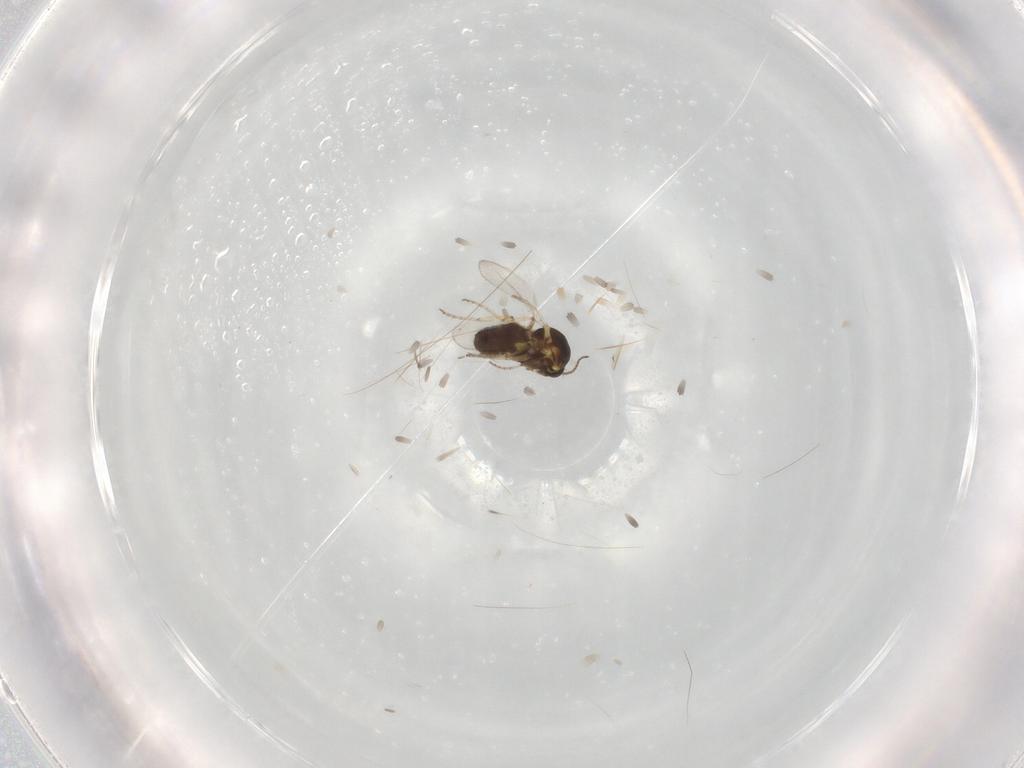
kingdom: Animalia
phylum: Arthropoda
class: Insecta
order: Diptera
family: Ceratopogonidae
